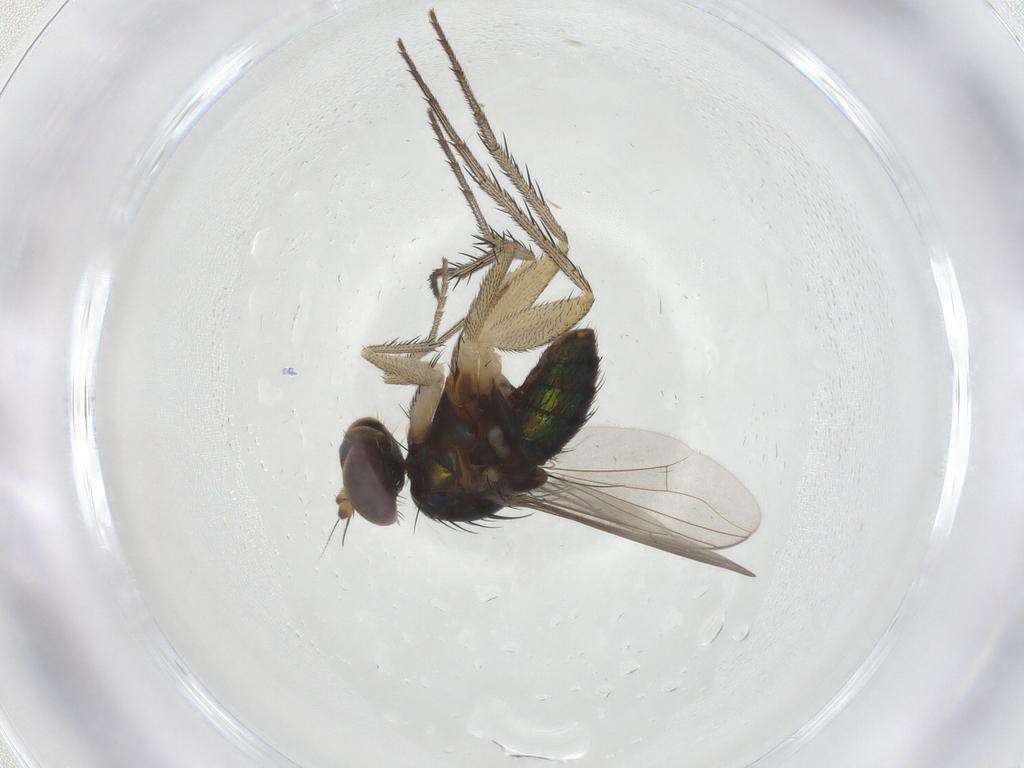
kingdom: Animalia
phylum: Arthropoda
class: Insecta
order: Diptera
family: Dolichopodidae
